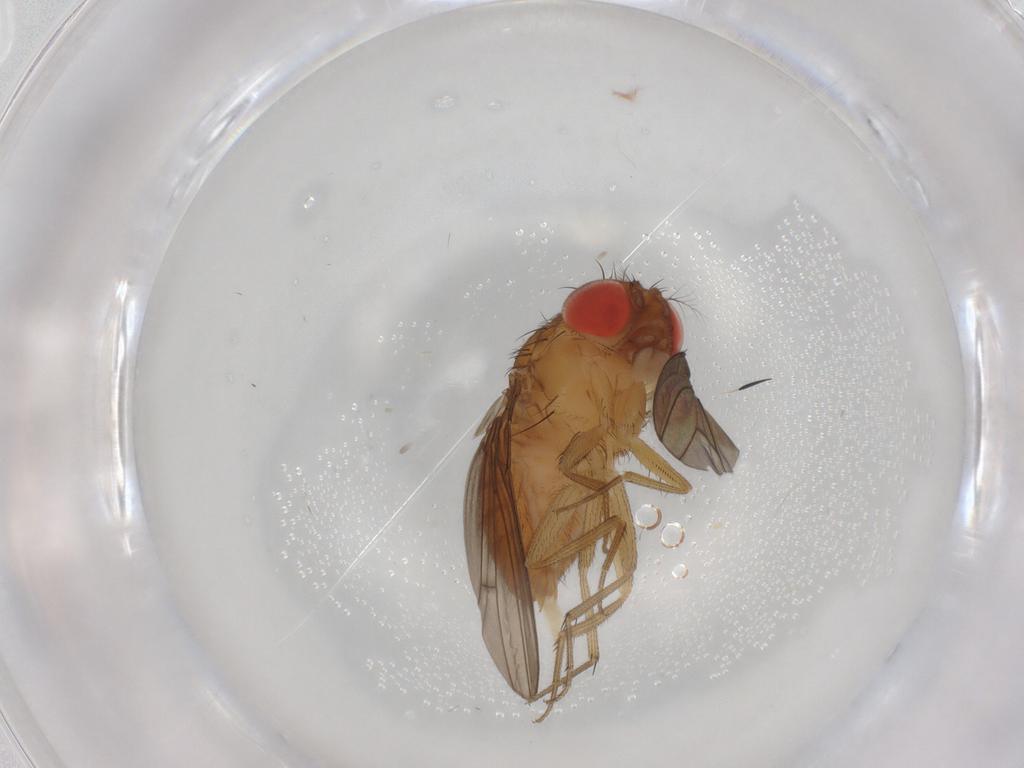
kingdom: Animalia
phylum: Arthropoda
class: Insecta
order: Diptera
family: Drosophilidae
